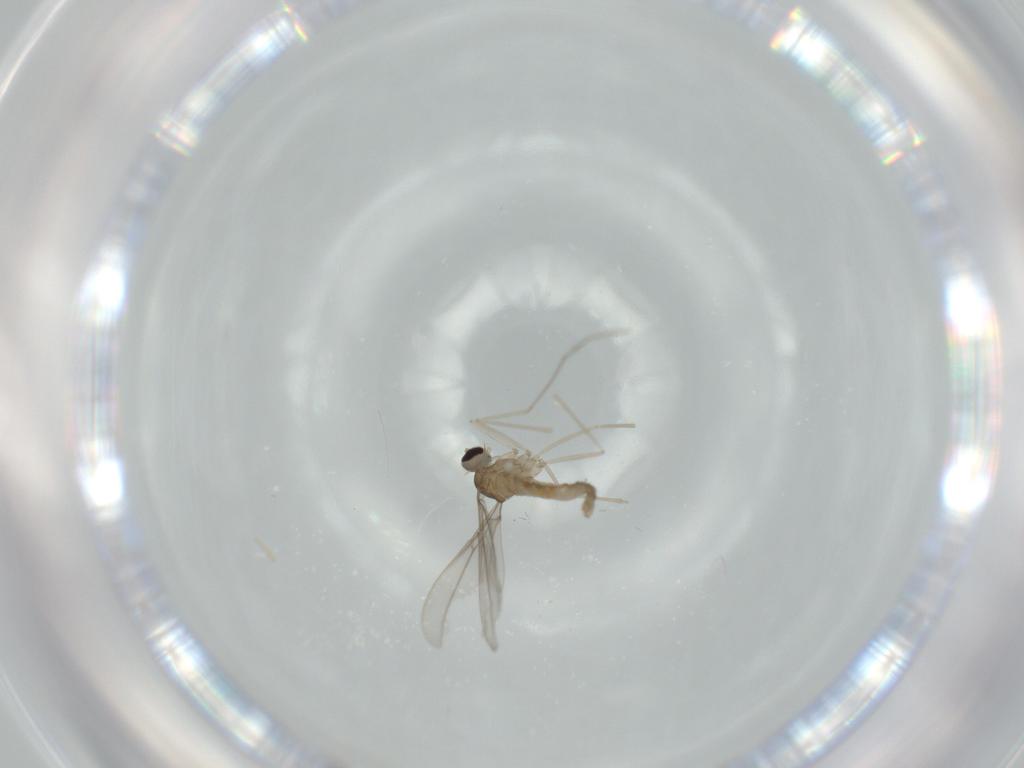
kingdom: Animalia
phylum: Arthropoda
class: Insecta
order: Diptera
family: Cecidomyiidae
